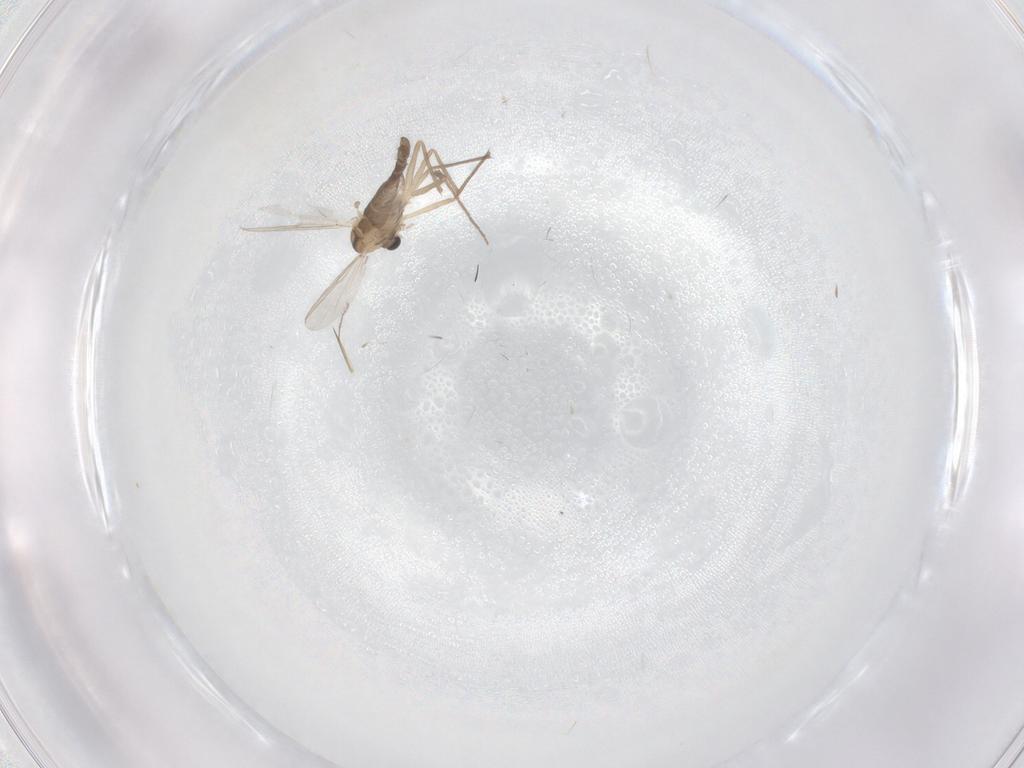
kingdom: Animalia
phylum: Arthropoda
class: Insecta
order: Diptera
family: Chironomidae
